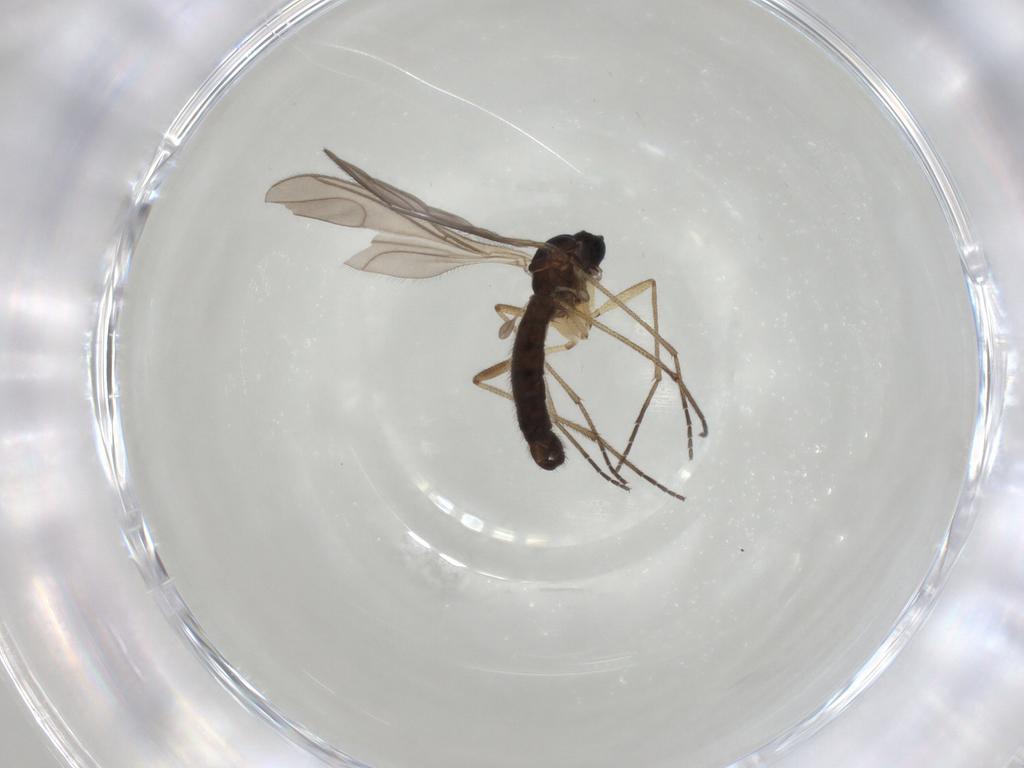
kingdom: Animalia
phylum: Arthropoda
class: Insecta
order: Diptera
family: Sciaridae
